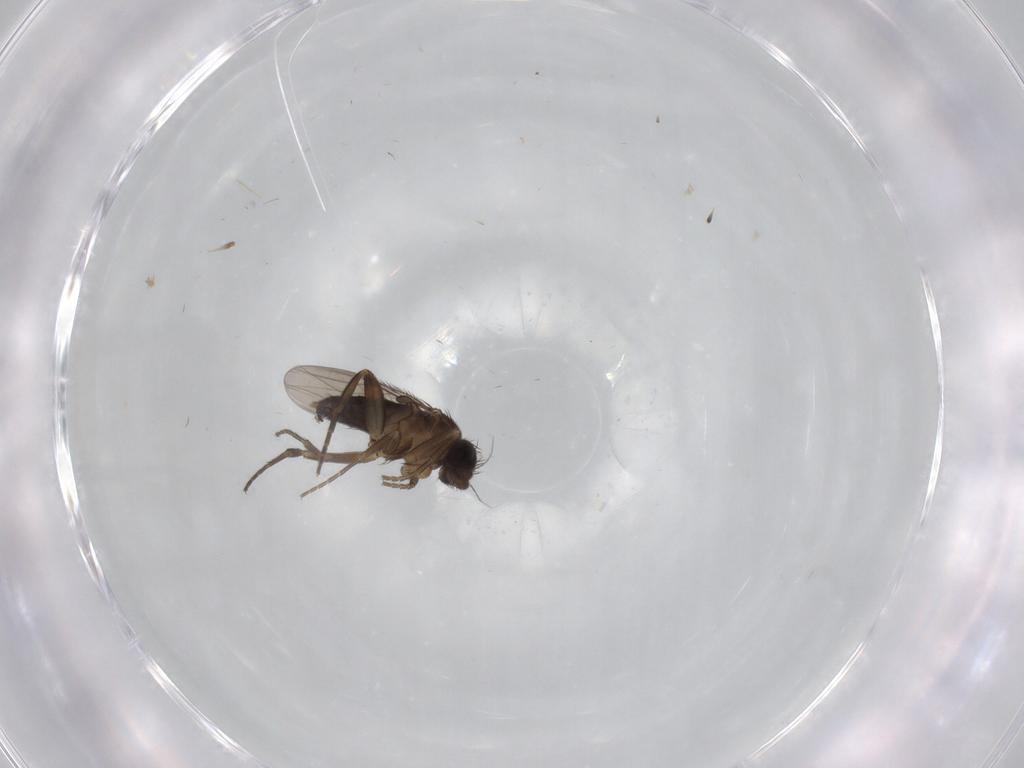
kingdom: Animalia
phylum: Arthropoda
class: Insecta
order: Diptera
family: Phoridae
